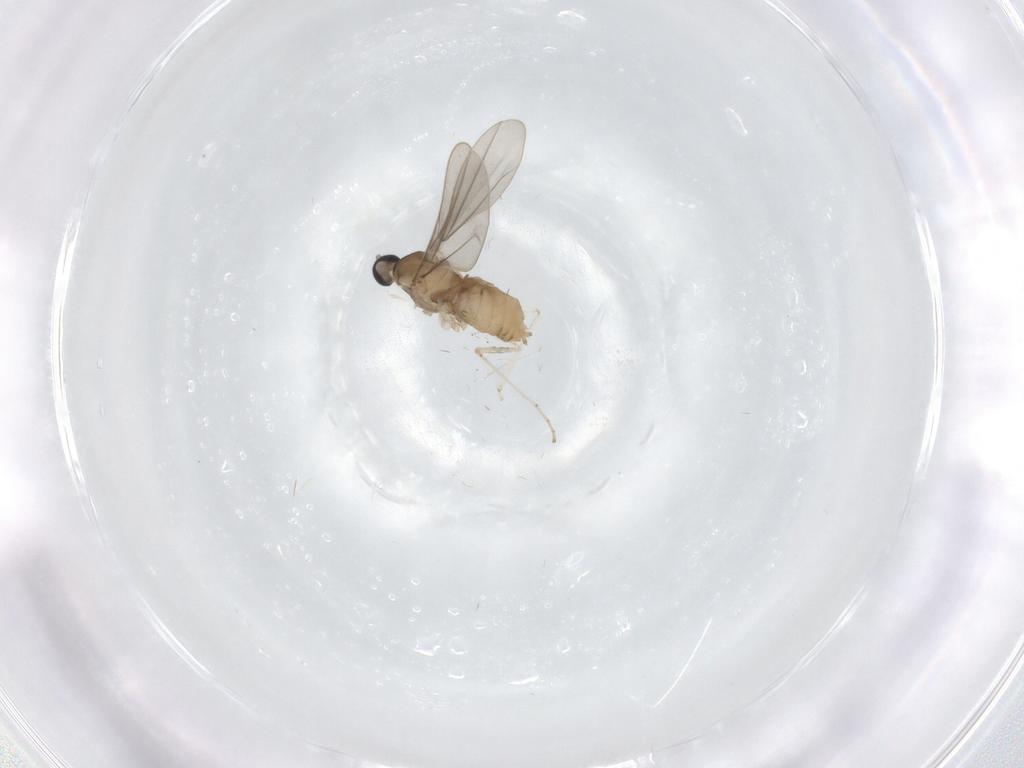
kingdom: Animalia
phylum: Arthropoda
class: Insecta
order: Diptera
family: Cecidomyiidae
